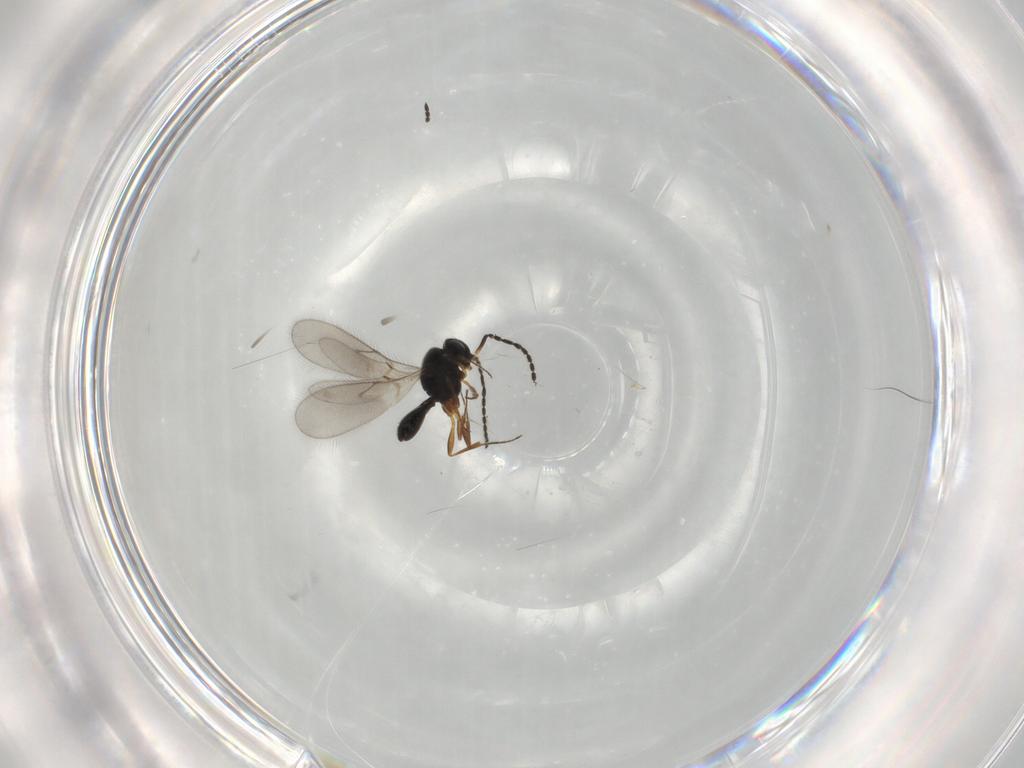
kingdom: Animalia
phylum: Arthropoda
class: Insecta
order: Hymenoptera
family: Scelionidae
